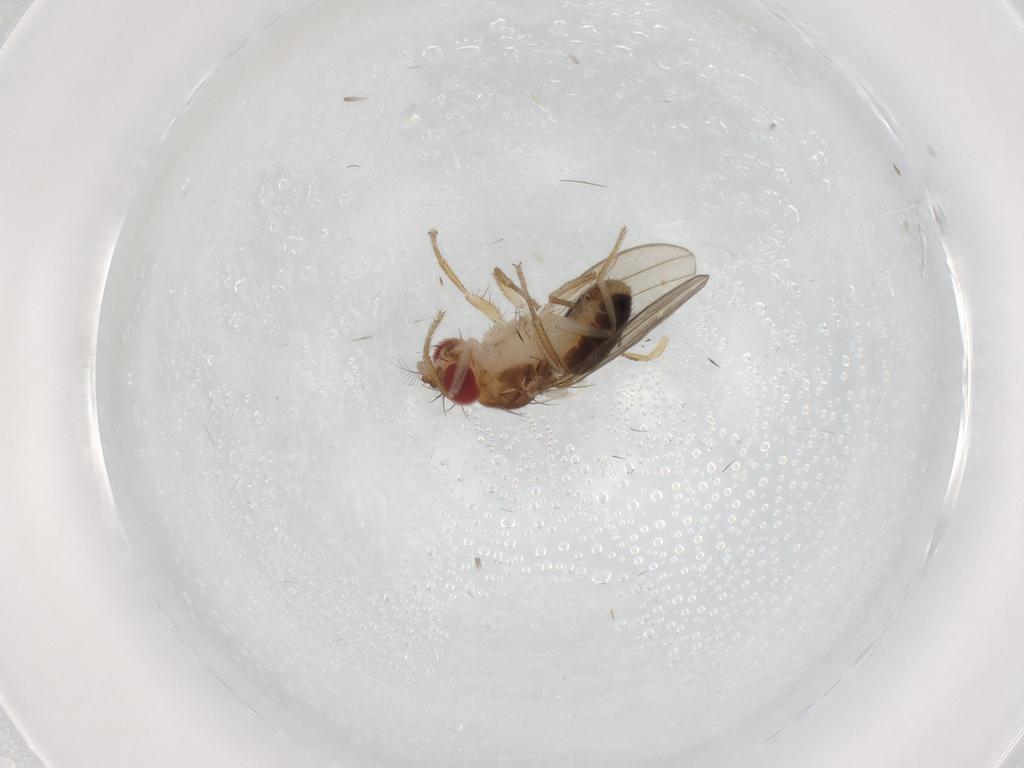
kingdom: Animalia
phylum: Arthropoda
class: Insecta
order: Diptera
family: Drosophilidae
